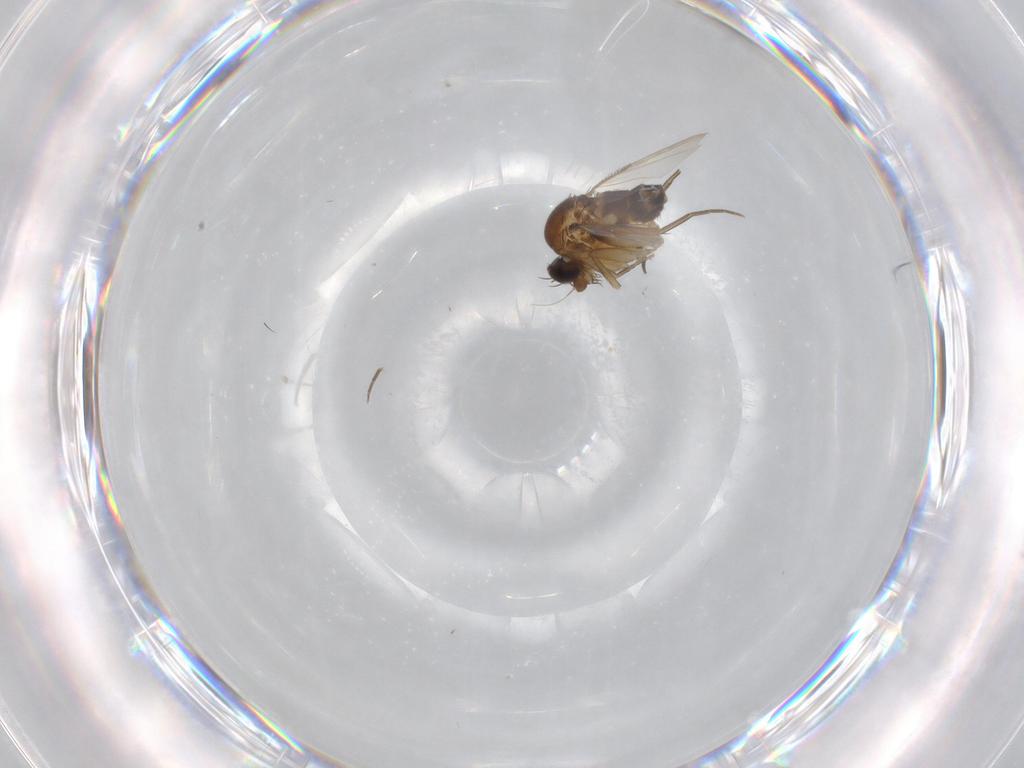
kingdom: Animalia
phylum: Arthropoda
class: Insecta
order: Diptera
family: Phoridae
